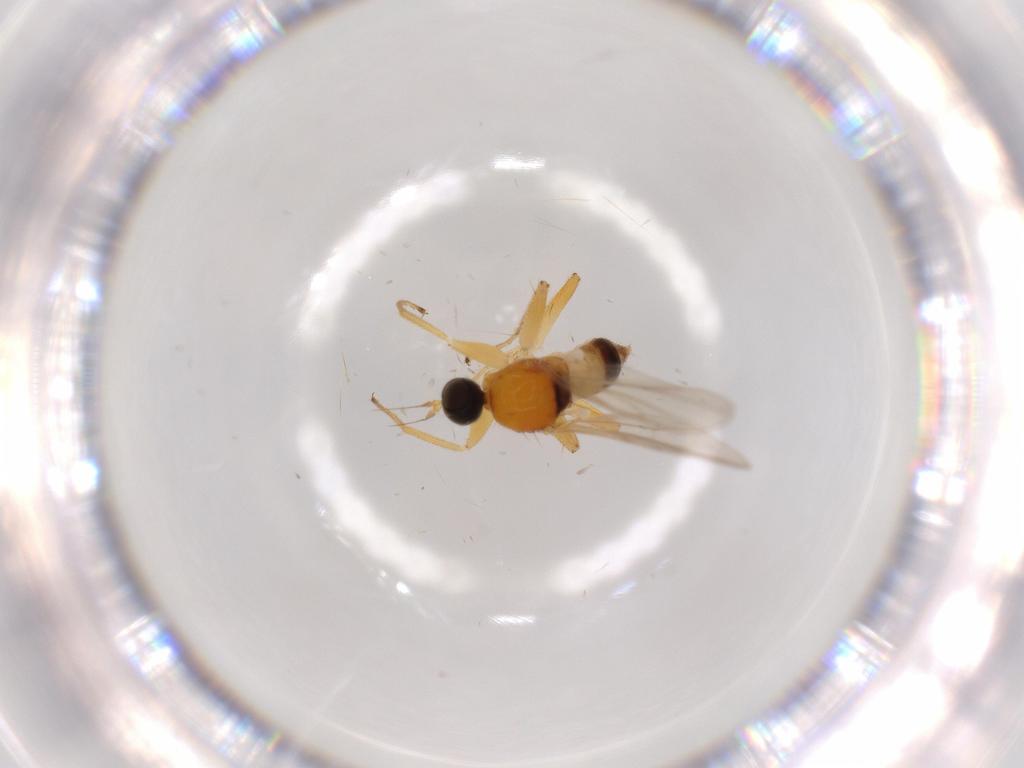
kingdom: Animalia
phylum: Arthropoda
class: Insecta
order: Diptera
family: Hybotidae
